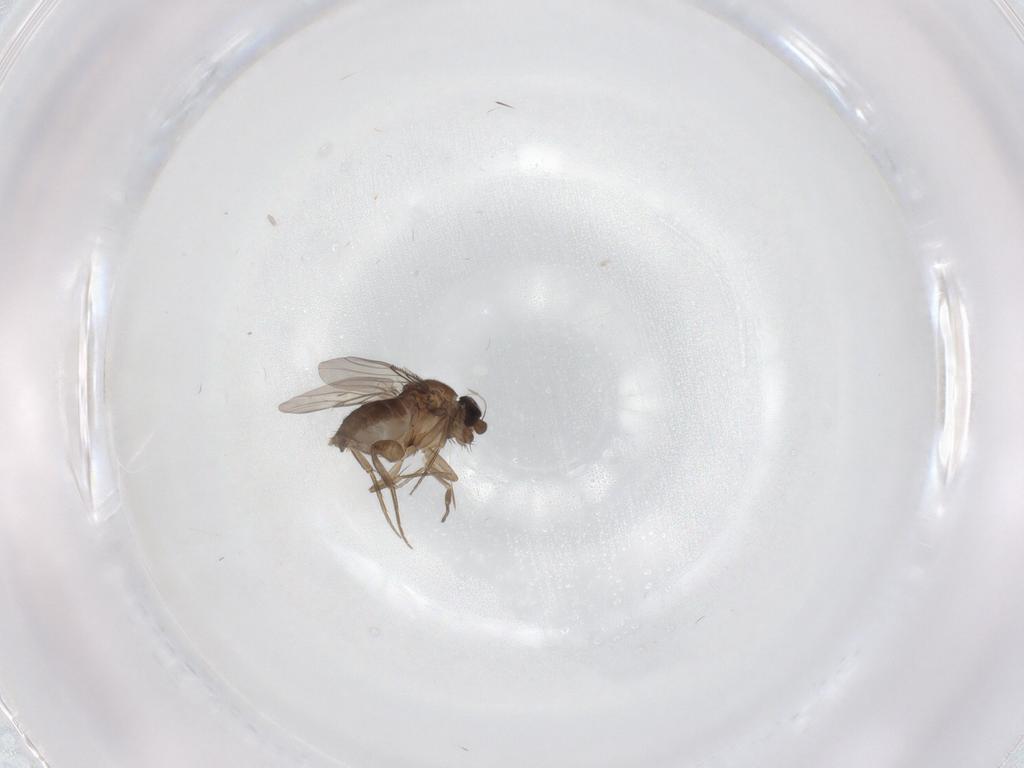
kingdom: Animalia
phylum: Arthropoda
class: Insecta
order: Diptera
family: Phoridae
